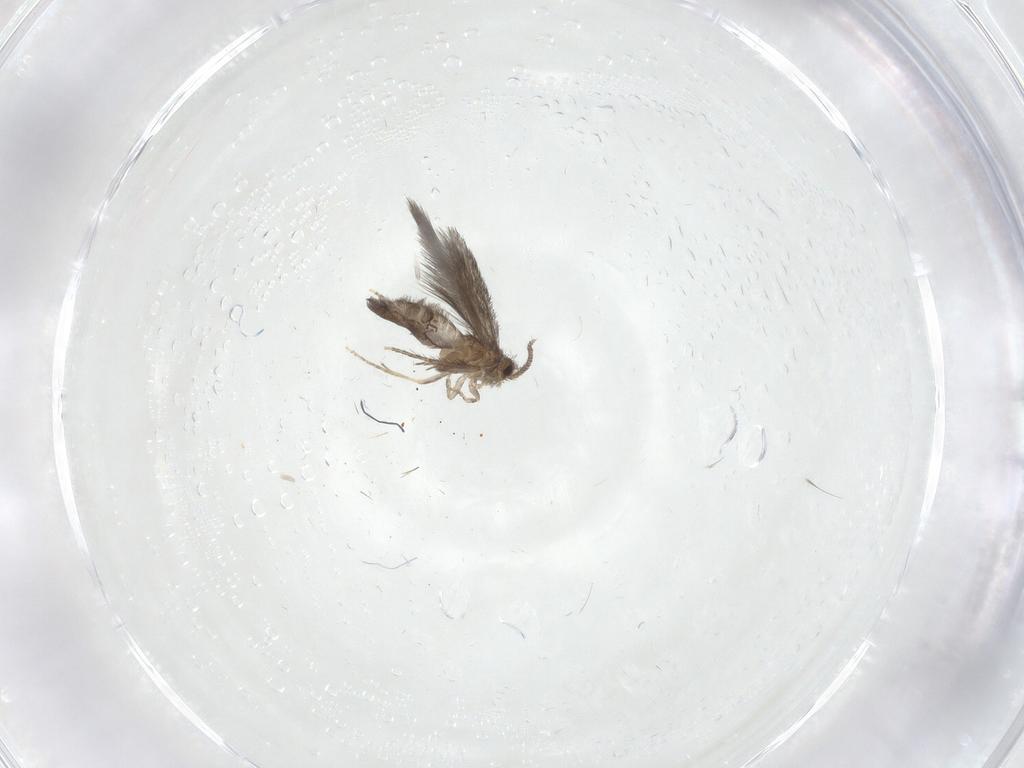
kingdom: Animalia
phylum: Arthropoda
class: Insecta
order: Trichoptera
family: Hydroptilidae
